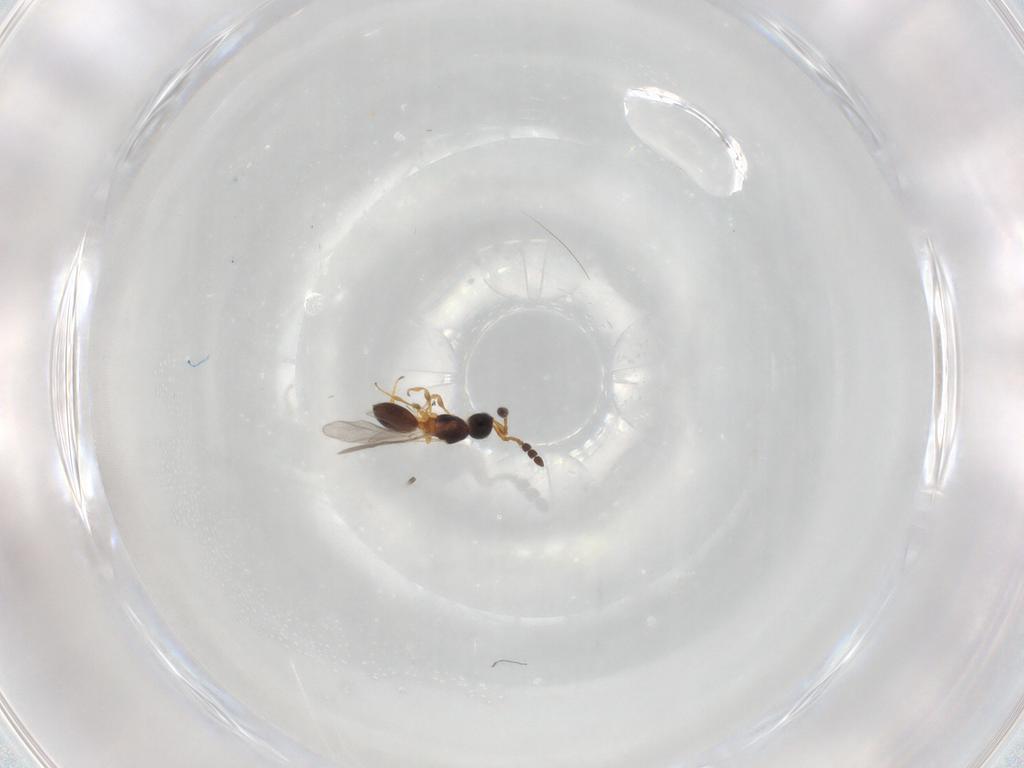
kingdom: Animalia
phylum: Arthropoda
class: Insecta
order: Hymenoptera
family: Diapriidae
